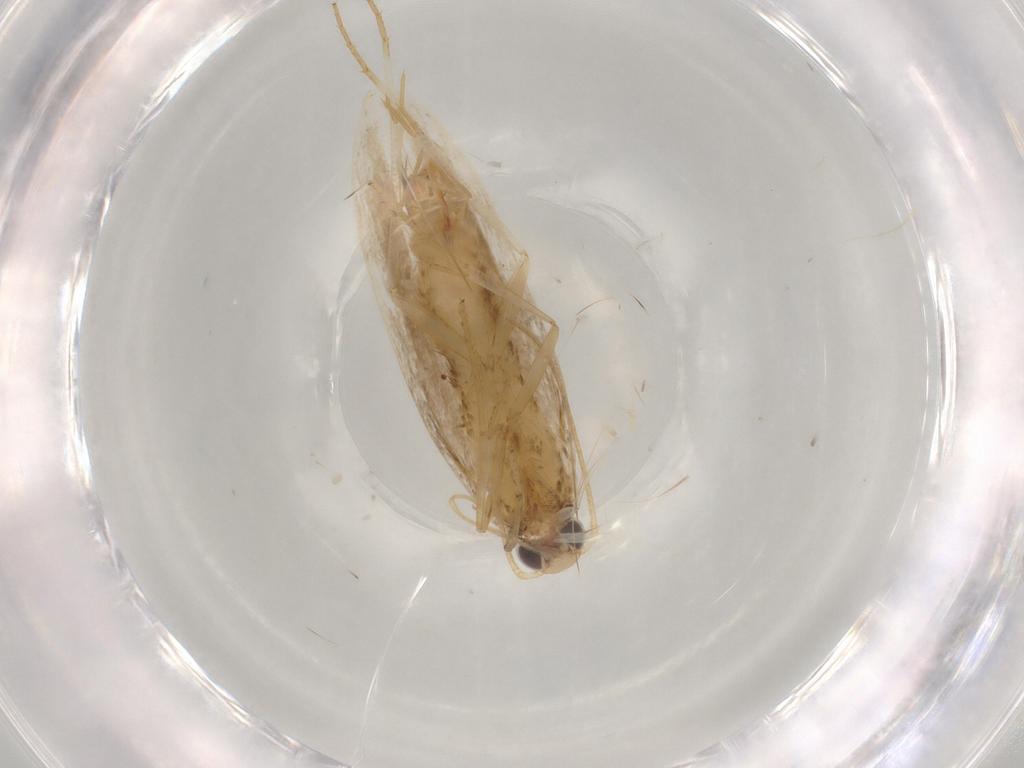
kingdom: Animalia
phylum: Arthropoda
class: Insecta
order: Lepidoptera
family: Gelechiidae
